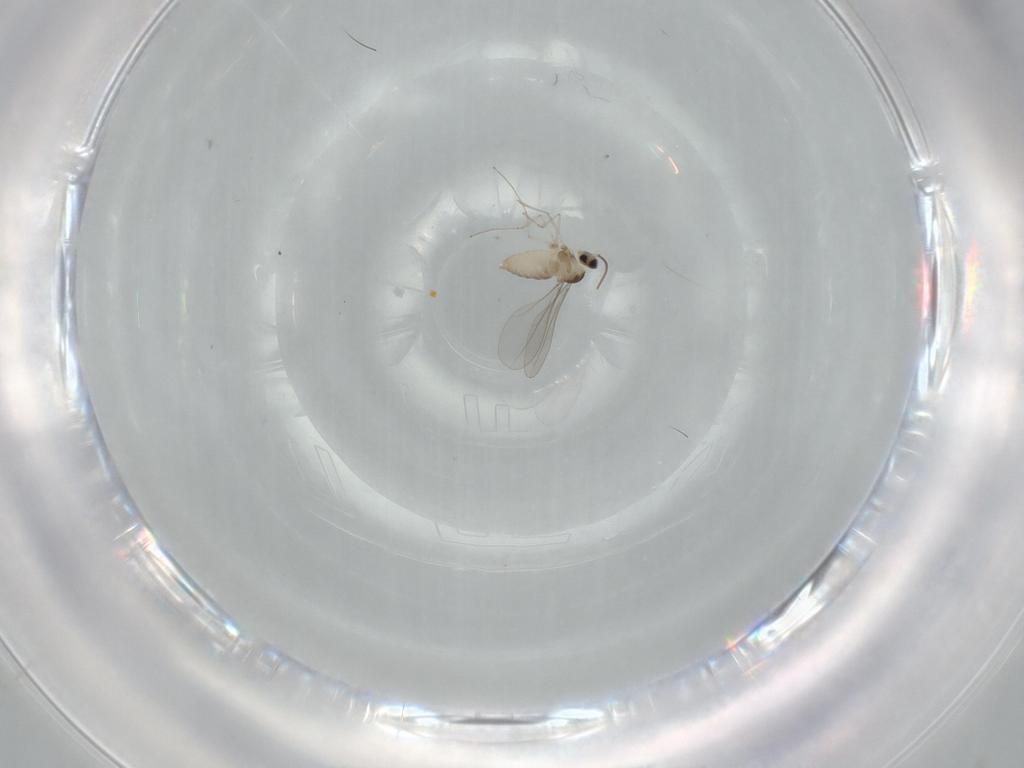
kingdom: Animalia
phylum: Arthropoda
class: Insecta
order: Diptera
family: Cecidomyiidae
